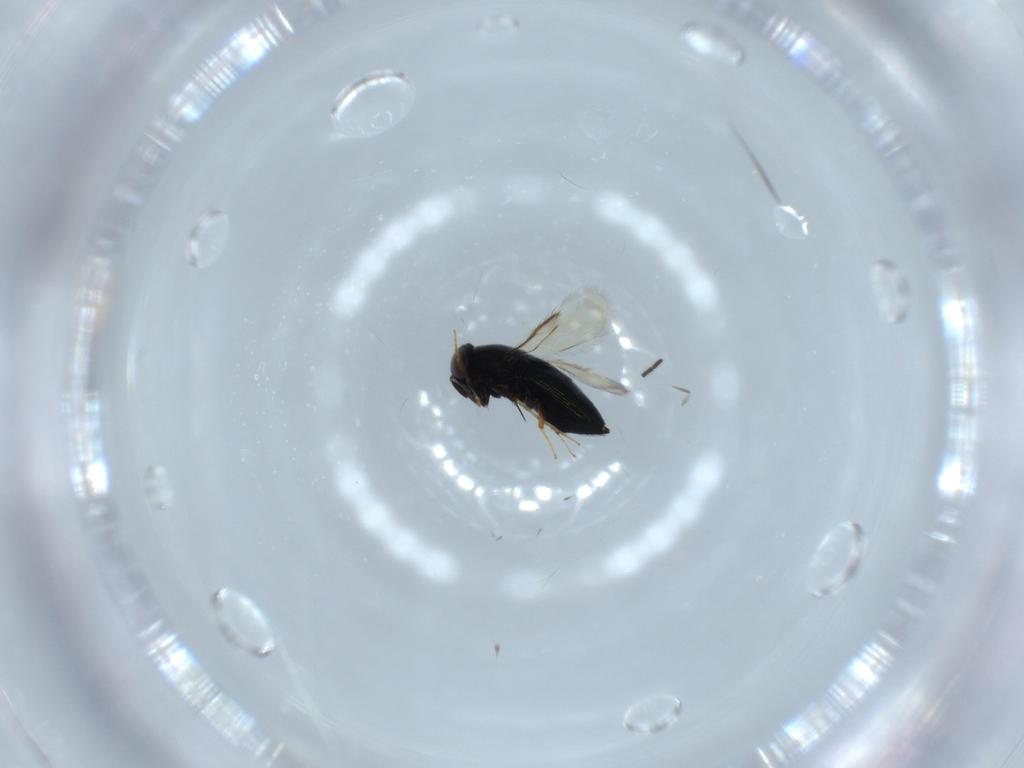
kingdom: Animalia
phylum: Arthropoda
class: Insecta
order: Hymenoptera
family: Signiphoridae
